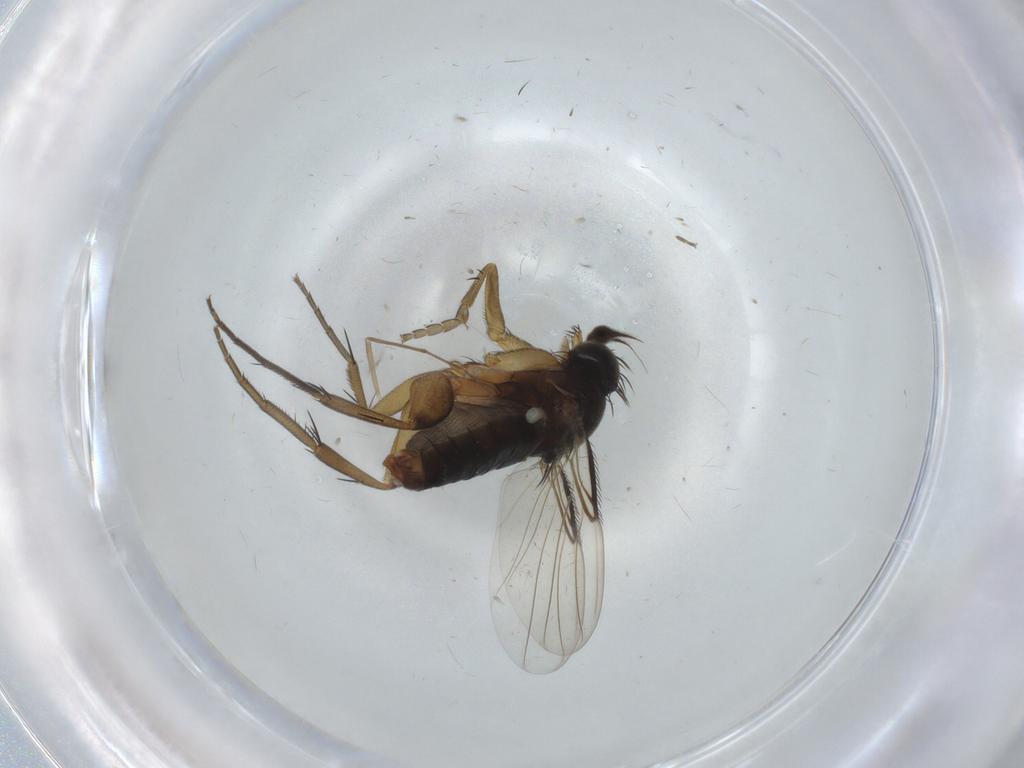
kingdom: Animalia
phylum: Arthropoda
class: Insecta
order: Diptera
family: Phoridae
